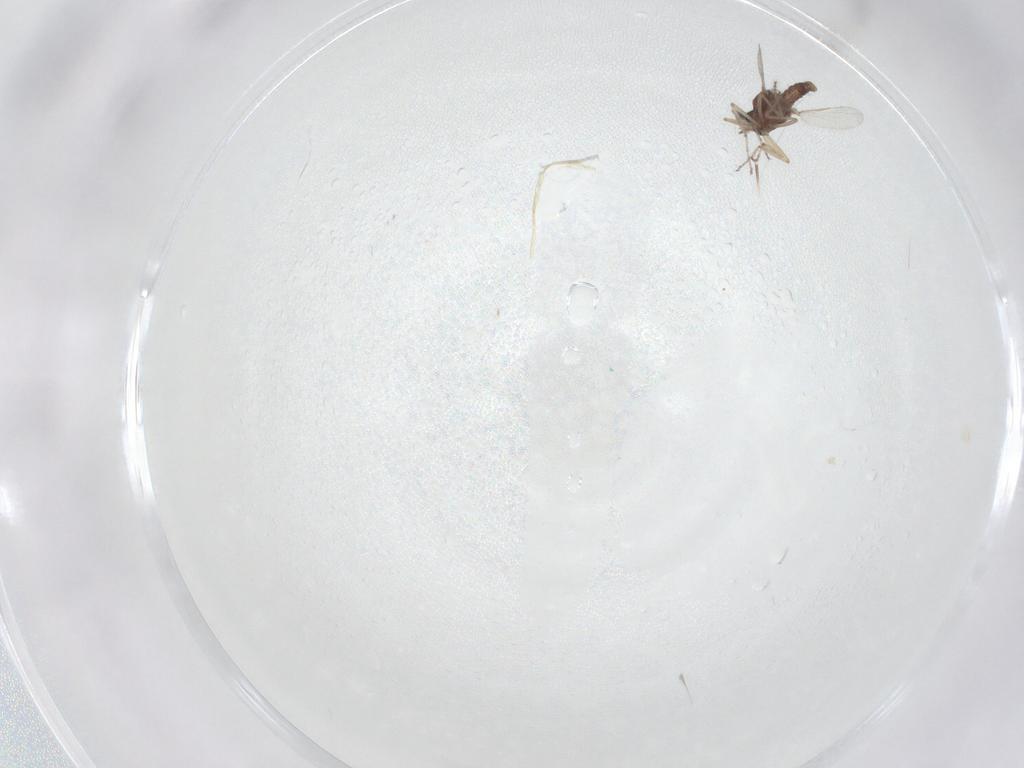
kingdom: Animalia
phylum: Arthropoda
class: Insecta
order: Diptera
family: Ceratopogonidae
